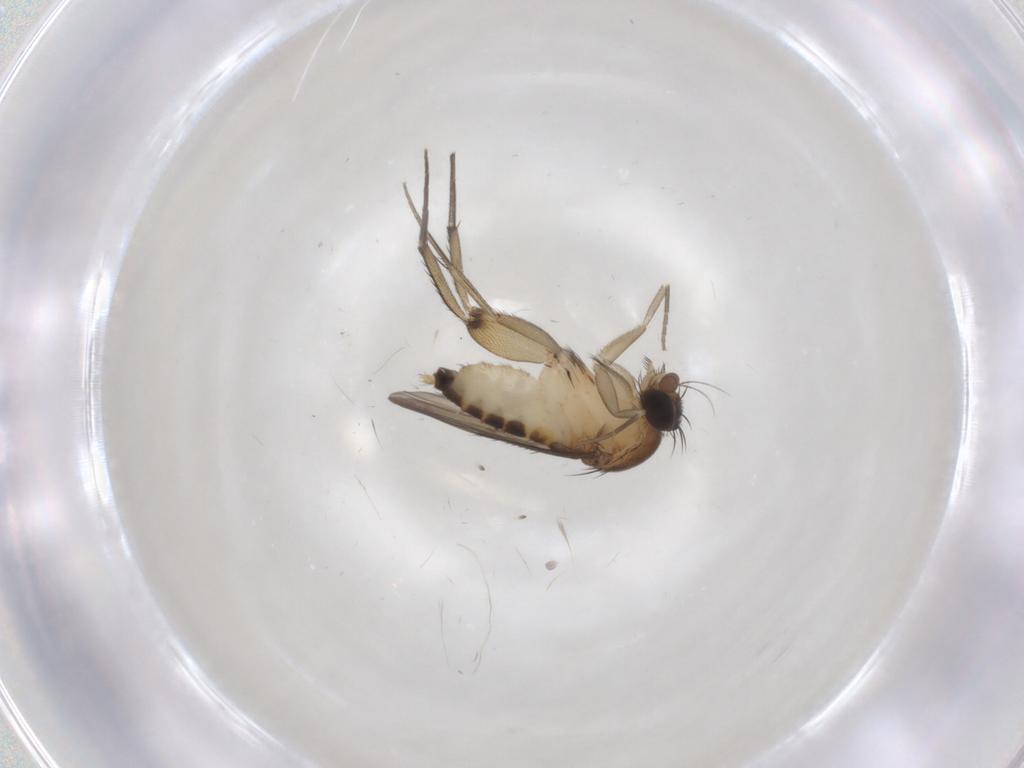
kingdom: Animalia
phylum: Arthropoda
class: Insecta
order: Diptera
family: Phoridae
